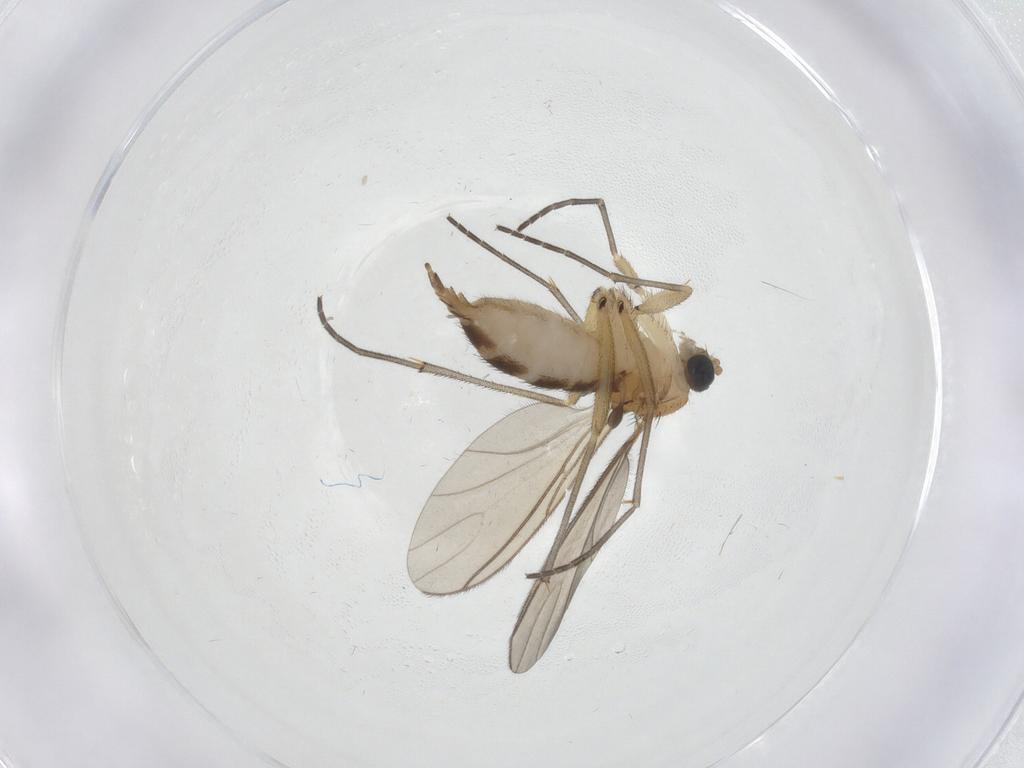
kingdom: Animalia
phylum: Arthropoda
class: Insecta
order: Diptera
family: Sciaridae
